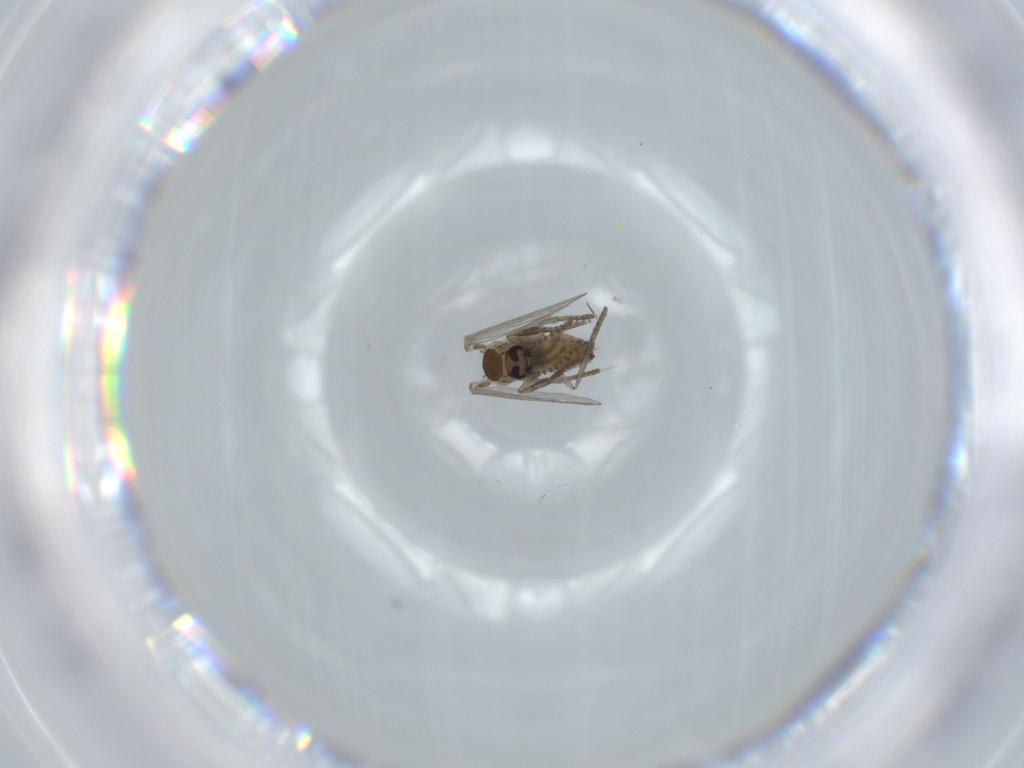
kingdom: Animalia
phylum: Arthropoda
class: Insecta
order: Diptera
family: Psychodidae
